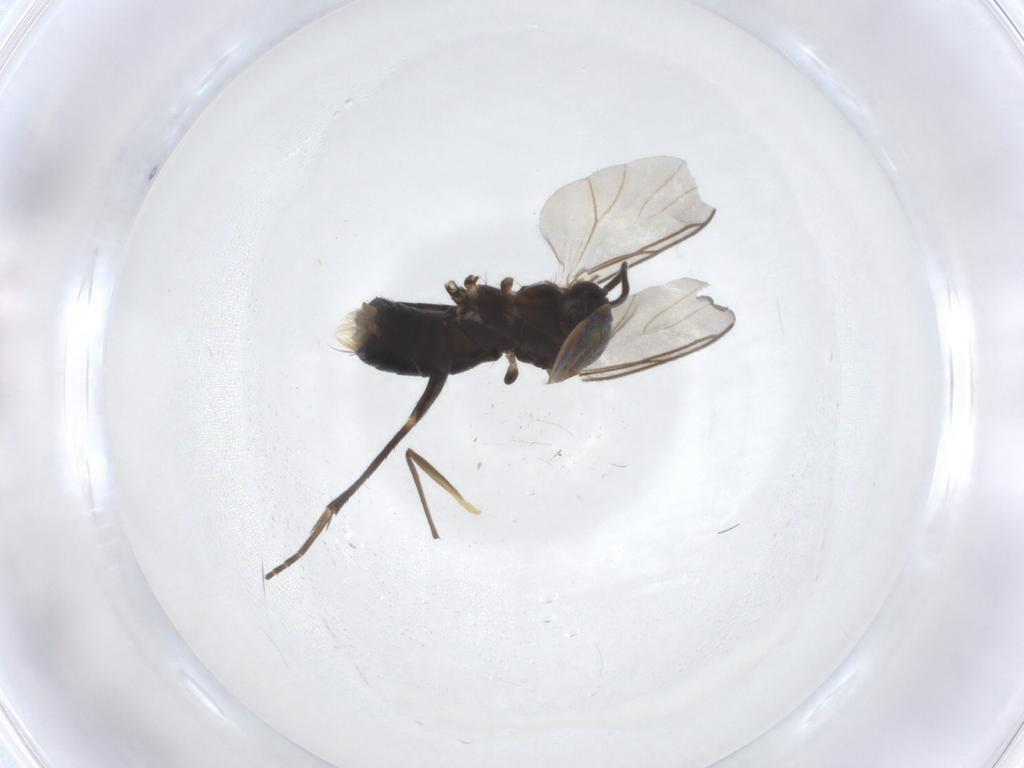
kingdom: Animalia
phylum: Arthropoda
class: Insecta
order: Diptera
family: Mycetophilidae
